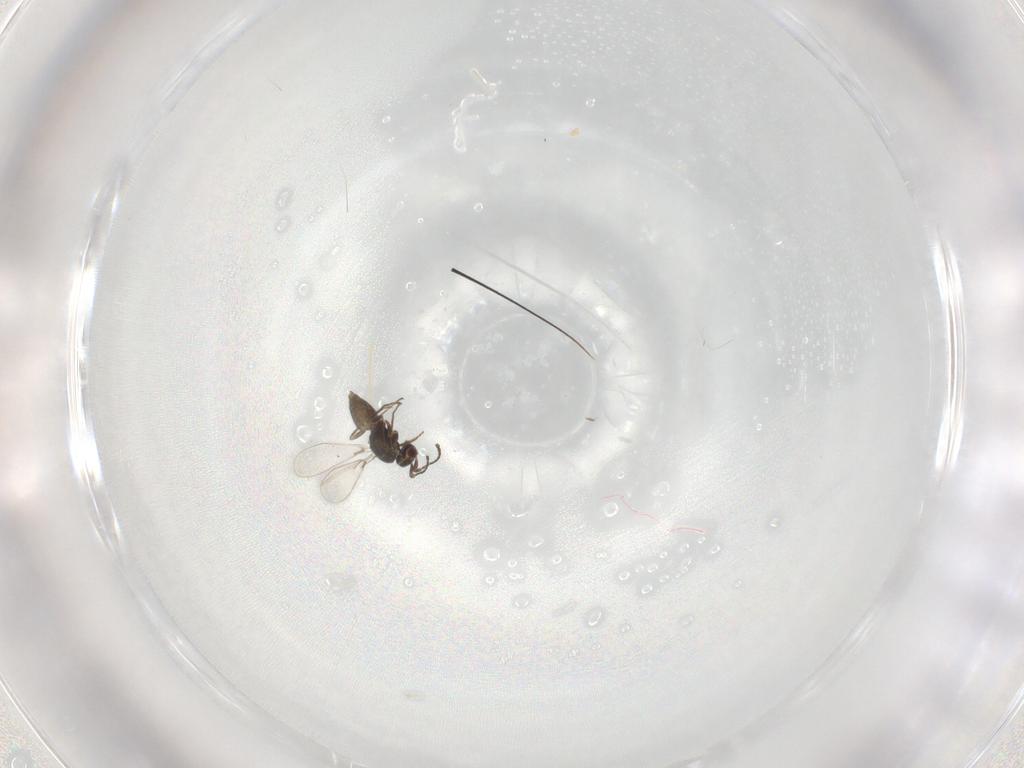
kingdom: Animalia
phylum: Arthropoda
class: Insecta
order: Hymenoptera
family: Mymaridae
